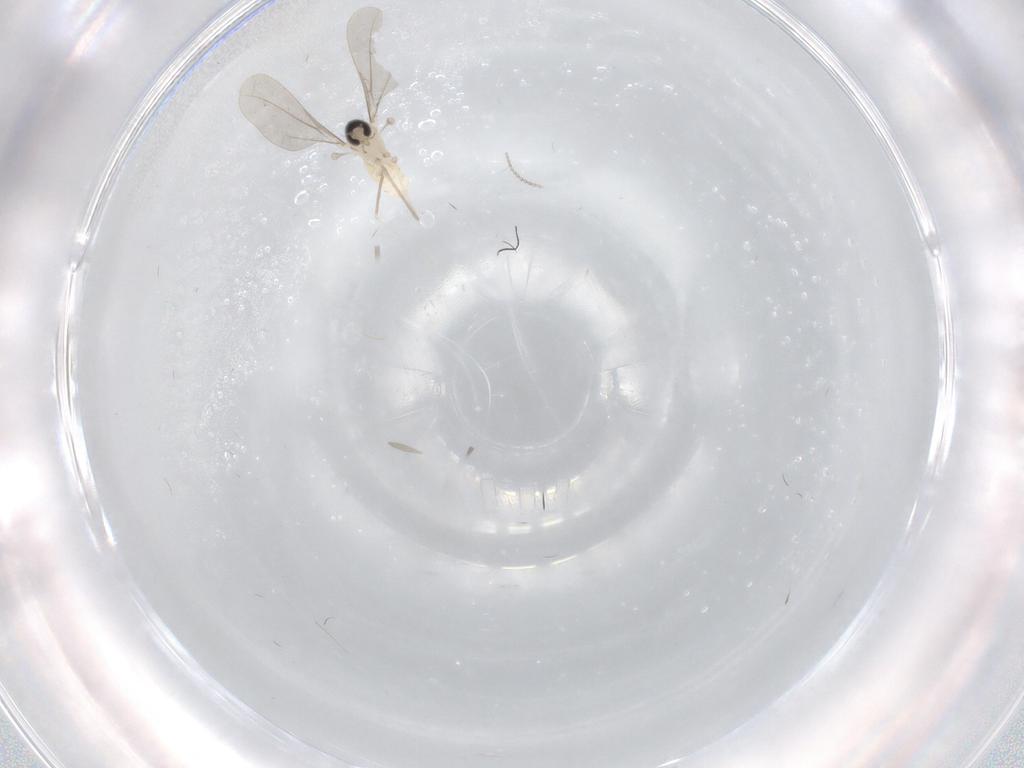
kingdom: Animalia
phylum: Arthropoda
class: Insecta
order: Diptera
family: Cecidomyiidae
